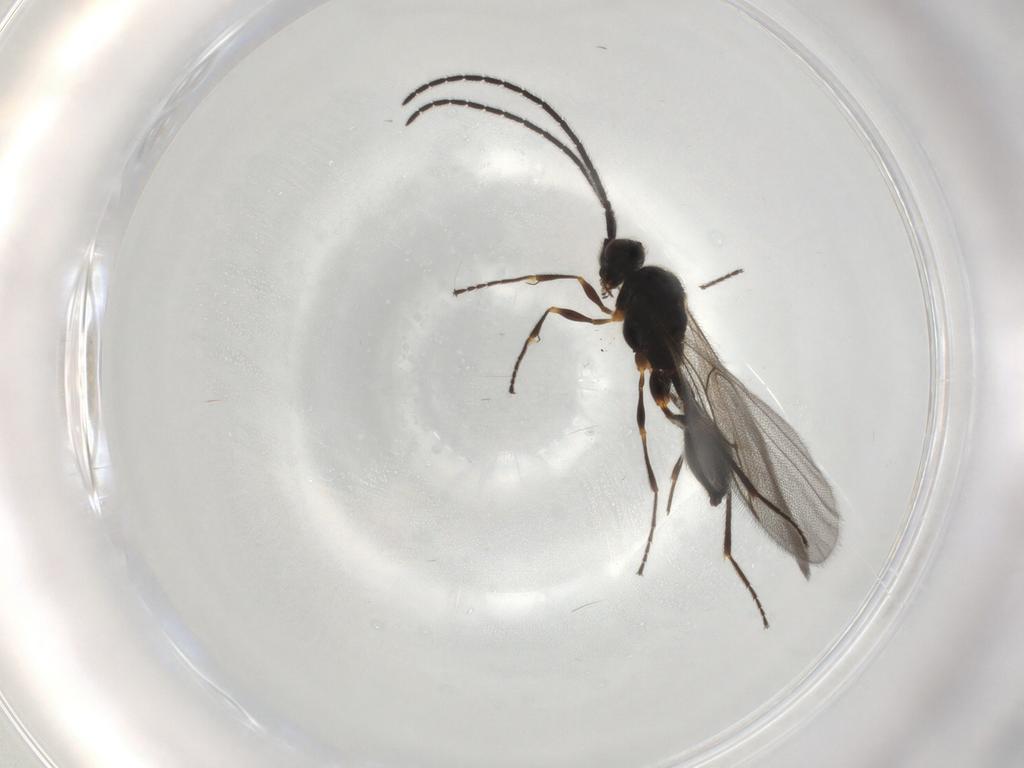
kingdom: Animalia
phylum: Arthropoda
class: Insecta
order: Hymenoptera
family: Diapriidae
